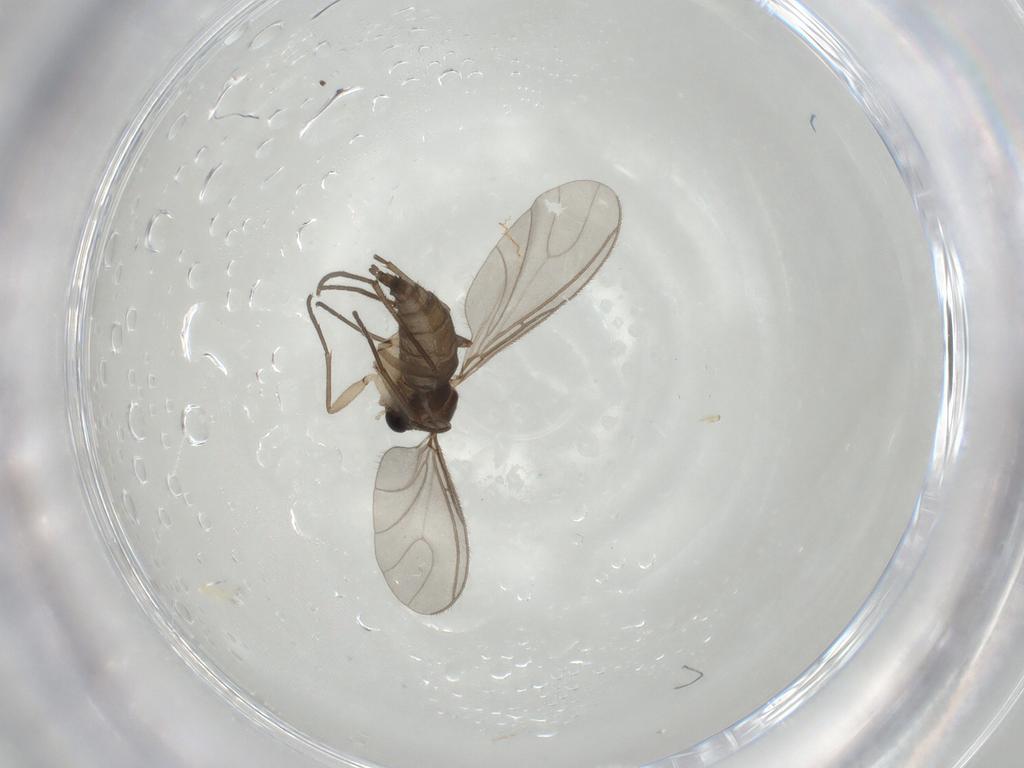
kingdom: Animalia
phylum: Arthropoda
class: Insecta
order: Diptera
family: Sciaridae
